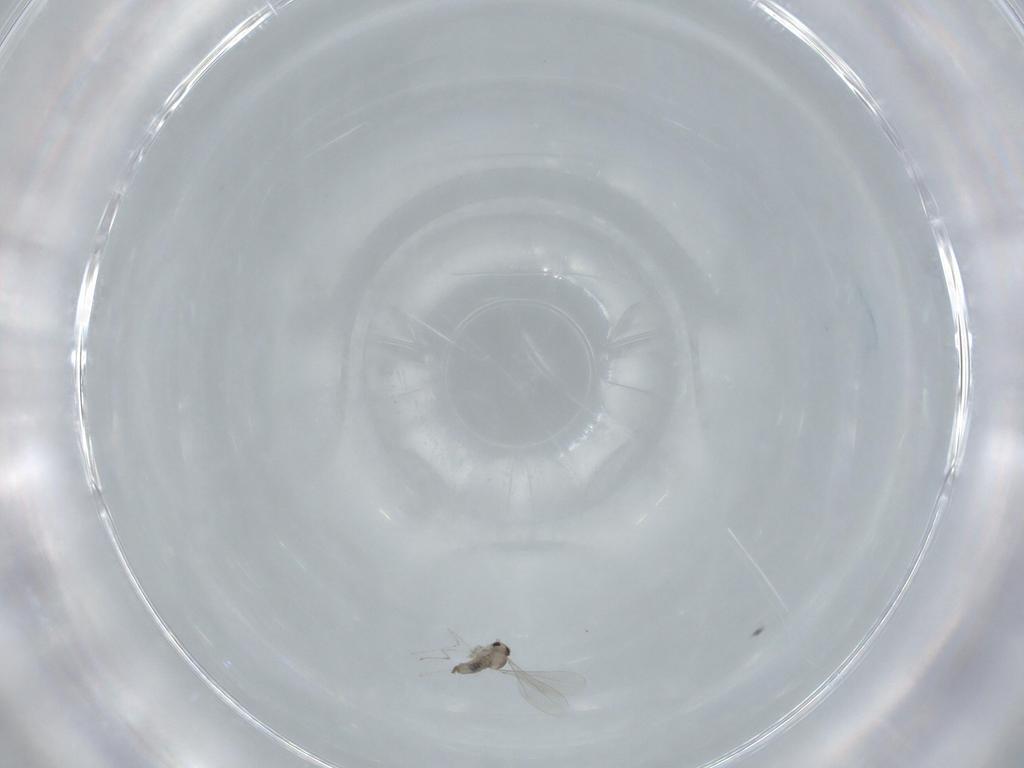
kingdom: Animalia
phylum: Arthropoda
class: Insecta
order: Diptera
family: Cecidomyiidae
